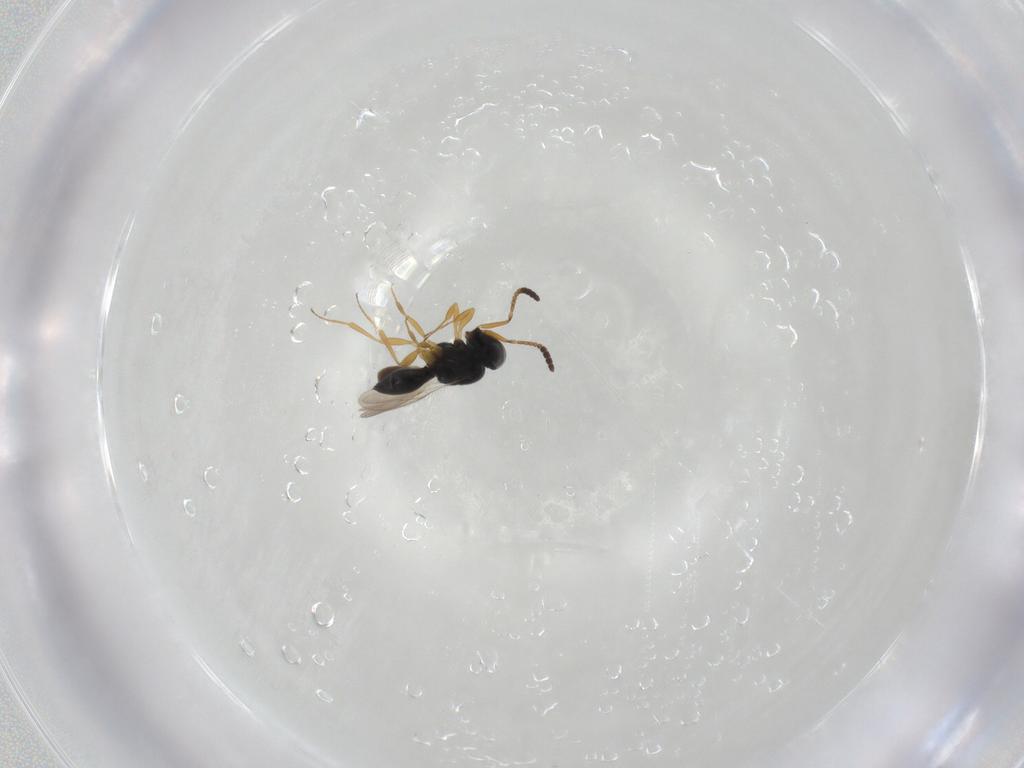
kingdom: Animalia
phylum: Arthropoda
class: Insecta
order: Hymenoptera
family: Scelionidae
